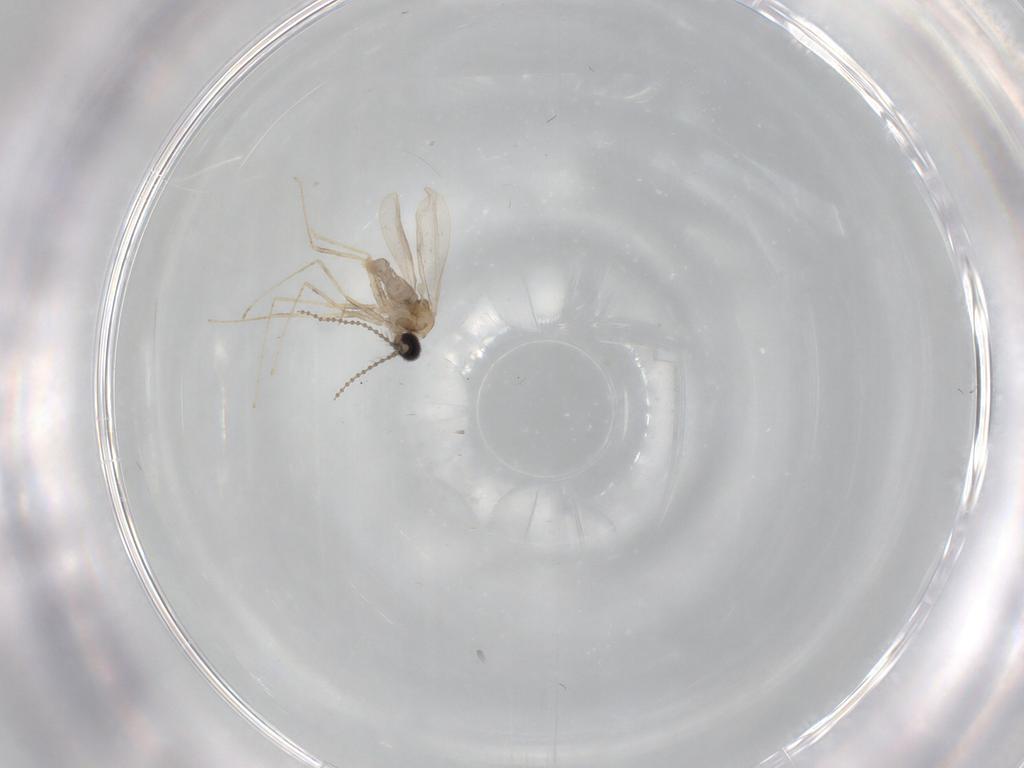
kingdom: Animalia
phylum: Arthropoda
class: Insecta
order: Diptera
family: Cecidomyiidae
